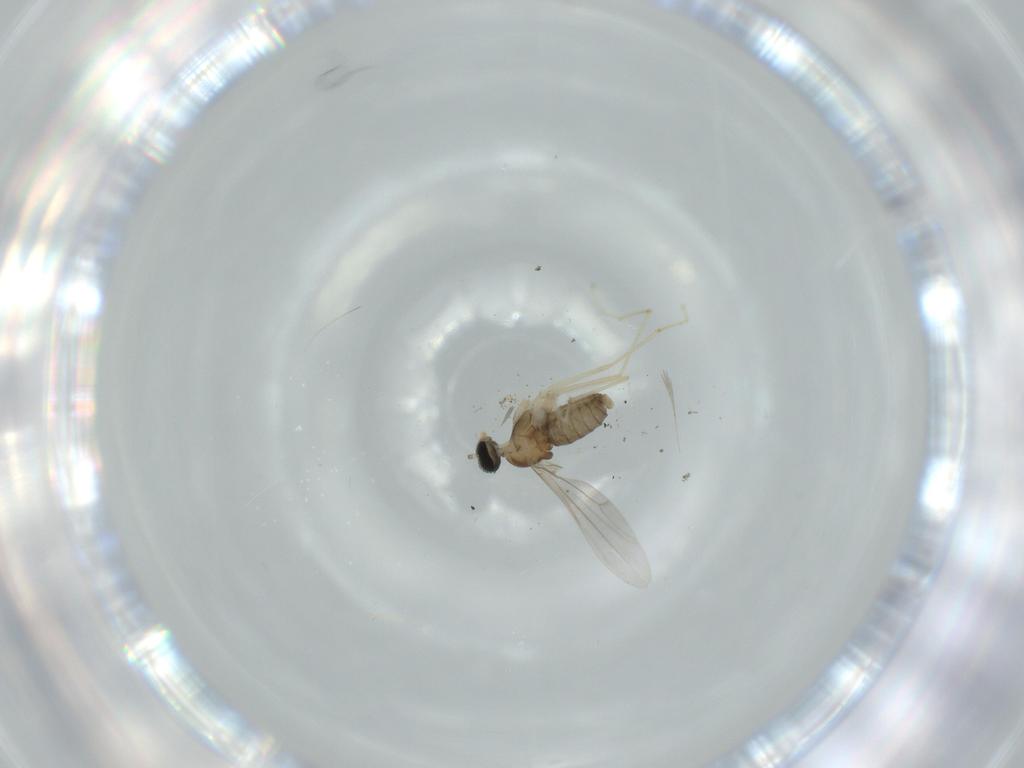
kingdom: Animalia
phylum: Arthropoda
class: Insecta
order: Diptera
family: Cecidomyiidae
